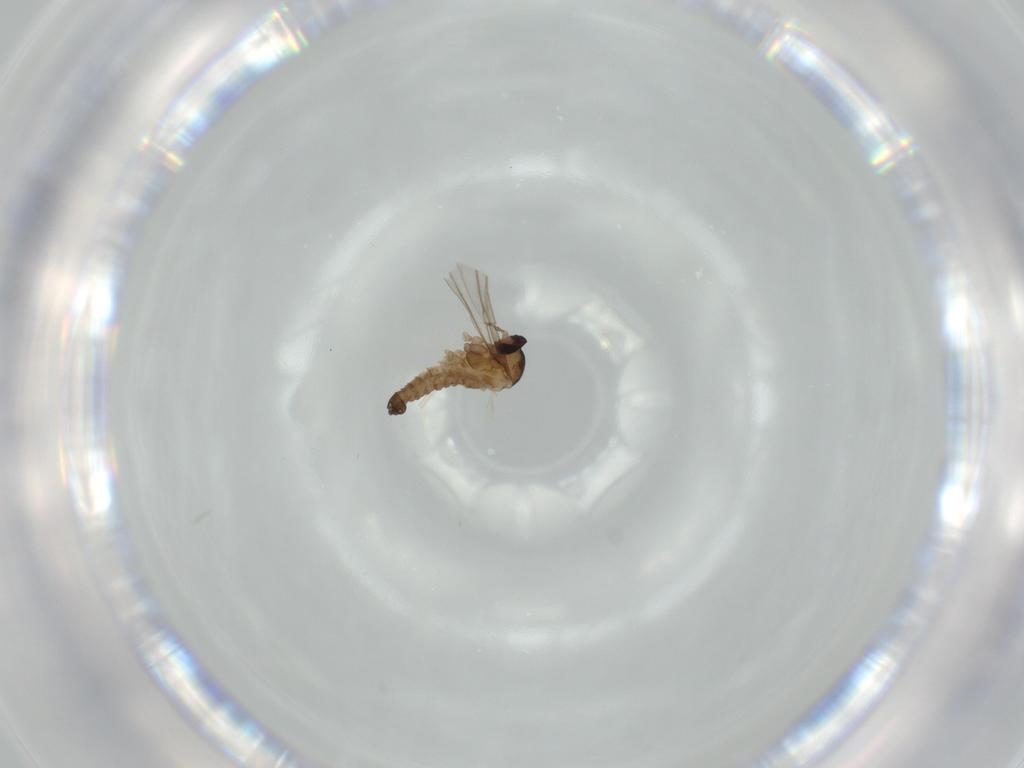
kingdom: Animalia
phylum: Arthropoda
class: Insecta
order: Diptera
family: Tachinidae
